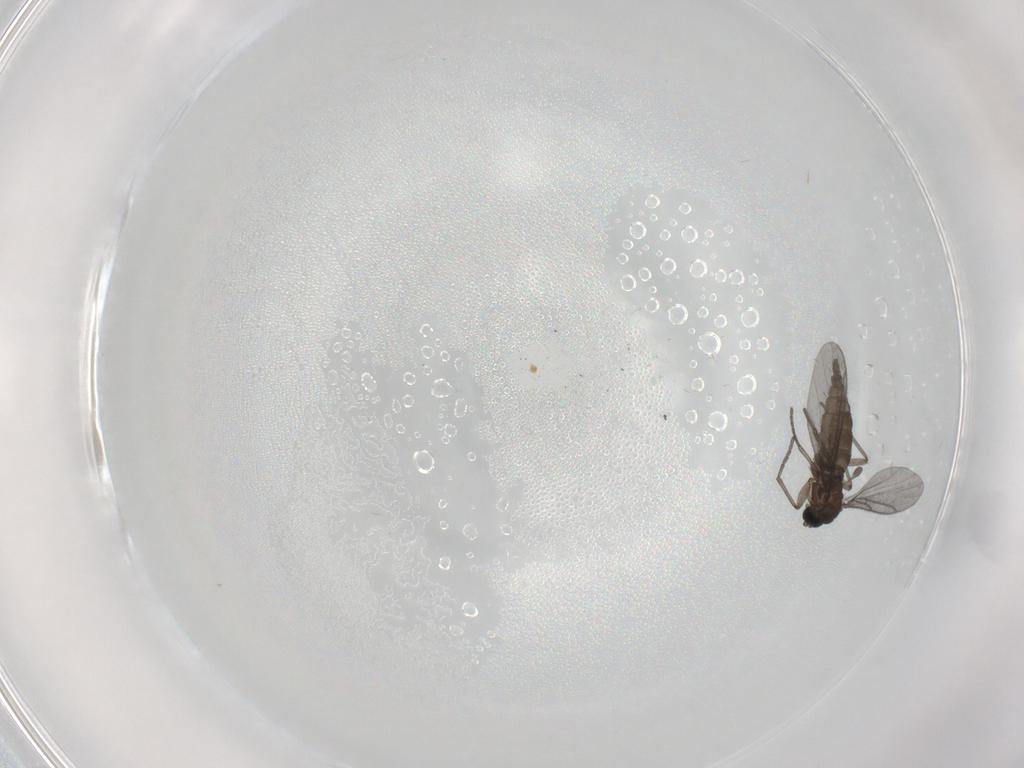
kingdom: Animalia
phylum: Arthropoda
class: Insecta
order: Diptera
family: Sciaridae
